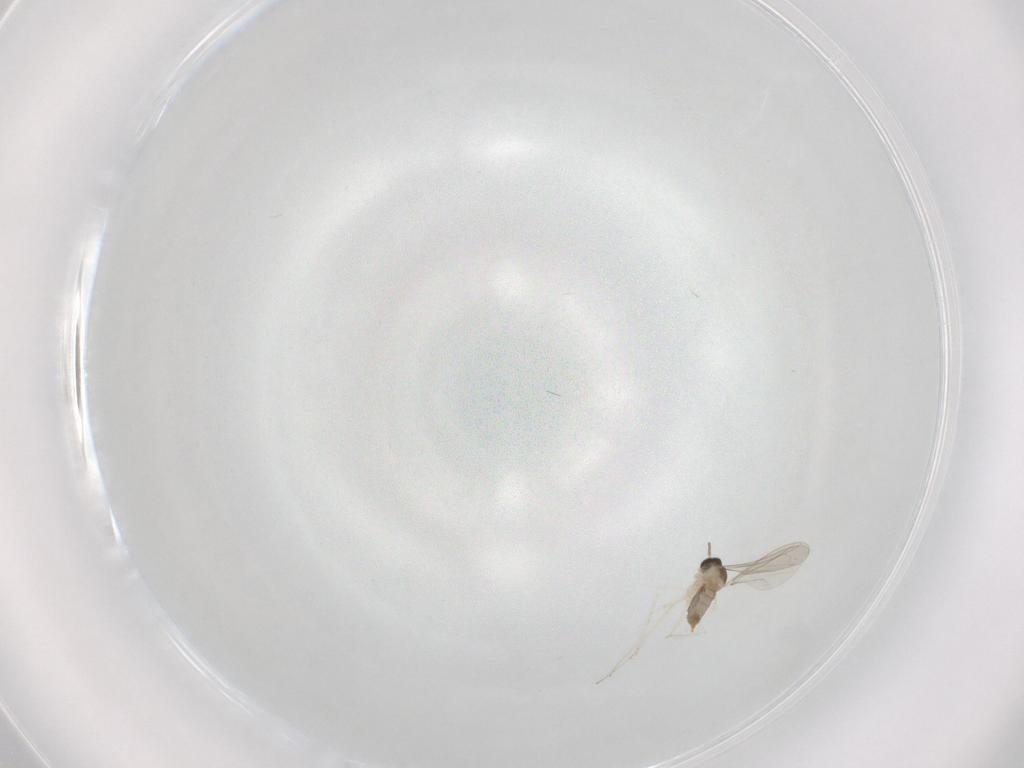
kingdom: Animalia
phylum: Arthropoda
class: Insecta
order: Diptera
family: Cecidomyiidae
